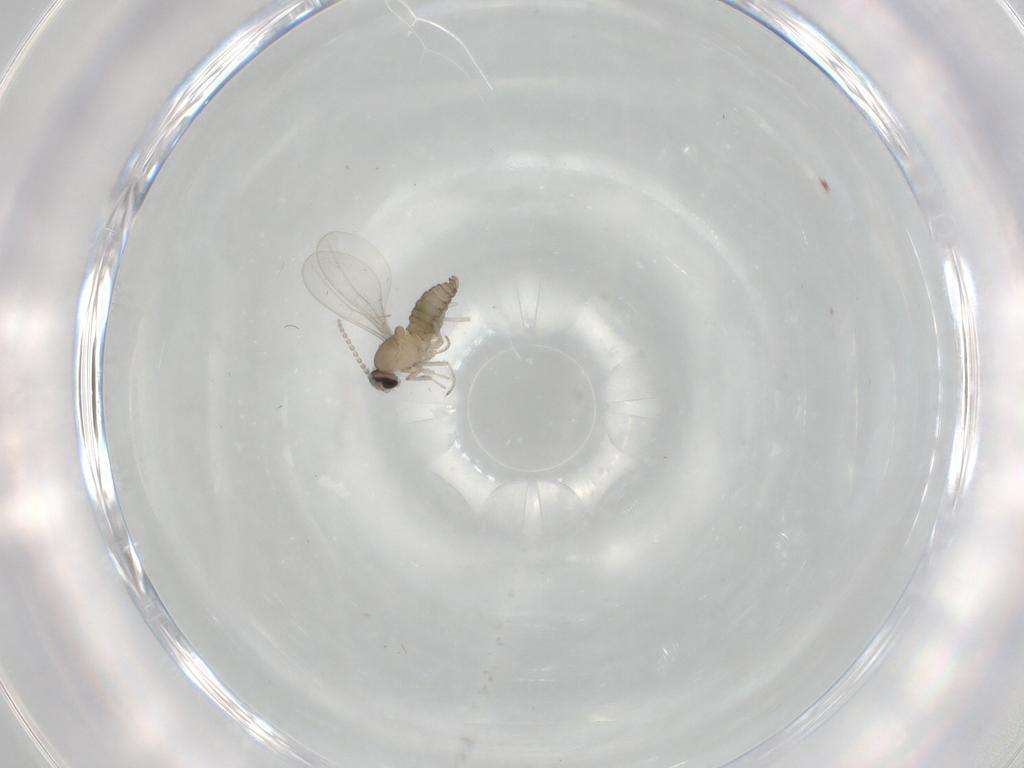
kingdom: Animalia
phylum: Arthropoda
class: Insecta
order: Diptera
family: Cecidomyiidae
